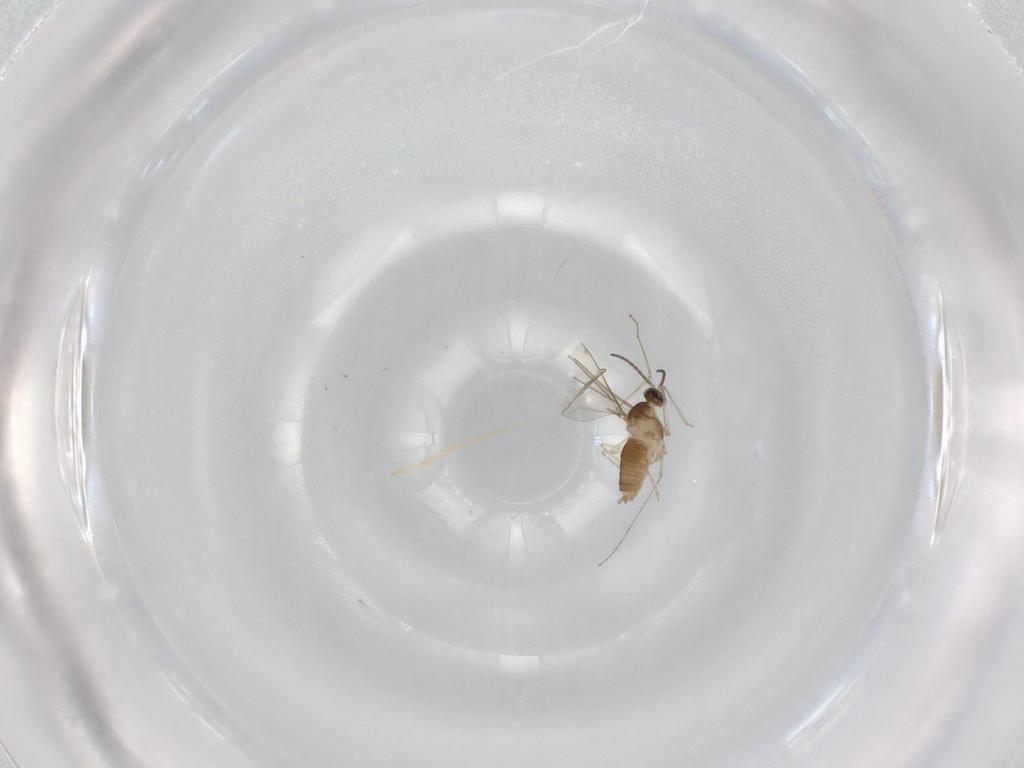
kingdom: Animalia
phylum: Arthropoda
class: Insecta
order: Diptera
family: Cecidomyiidae
